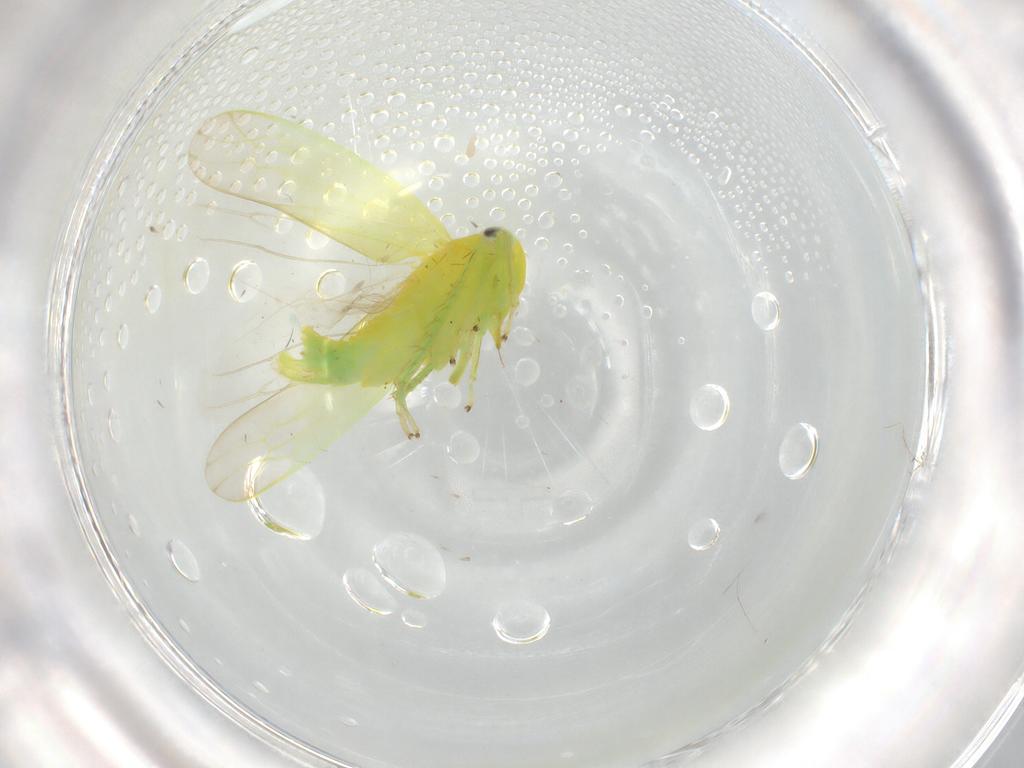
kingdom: Animalia
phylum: Arthropoda
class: Insecta
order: Hemiptera
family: Cicadellidae
